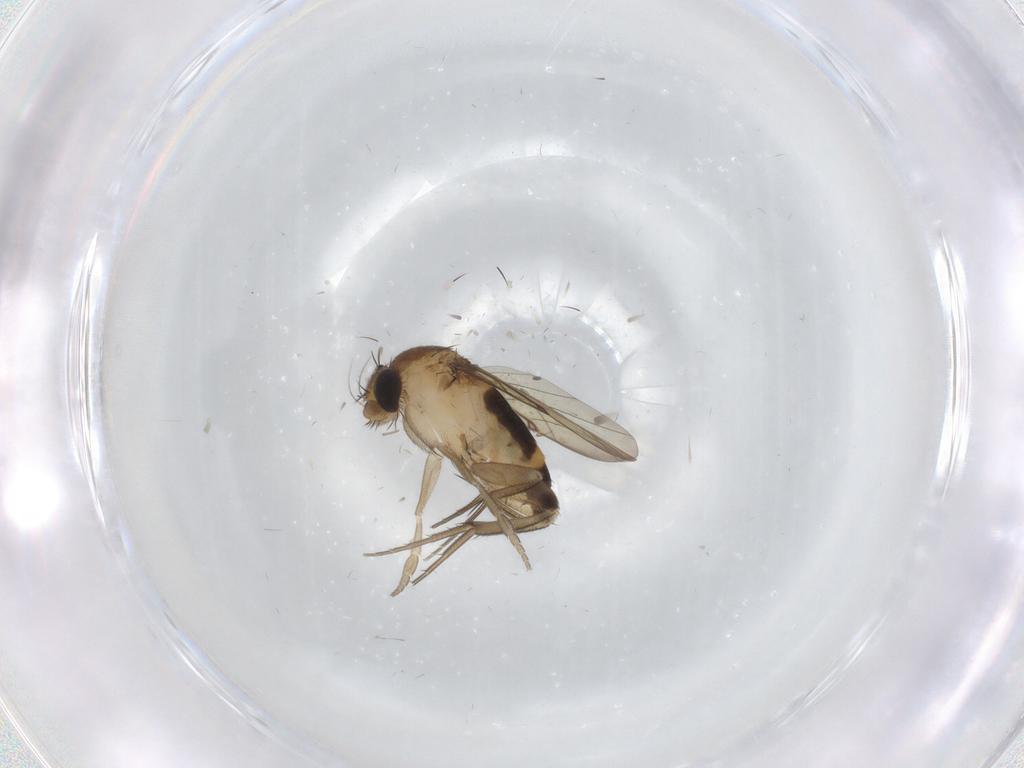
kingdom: Animalia
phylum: Arthropoda
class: Insecta
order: Diptera
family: Phoridae
